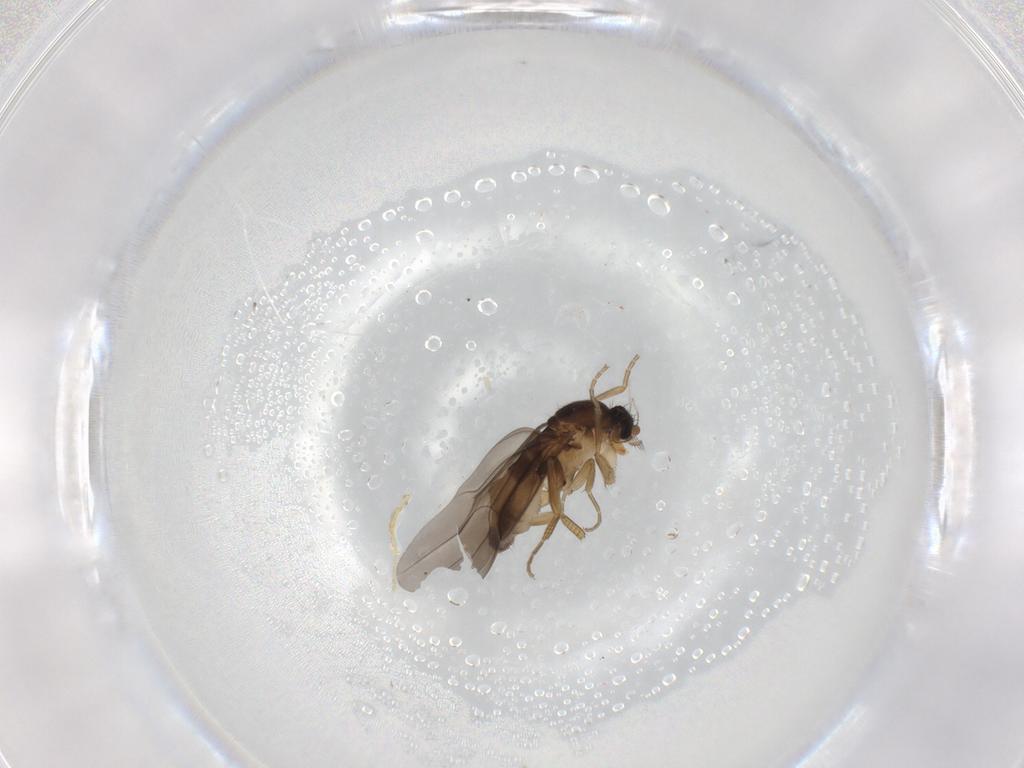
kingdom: Animalia
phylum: Arthropoda
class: Insecta
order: Diptera
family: Phoridae
